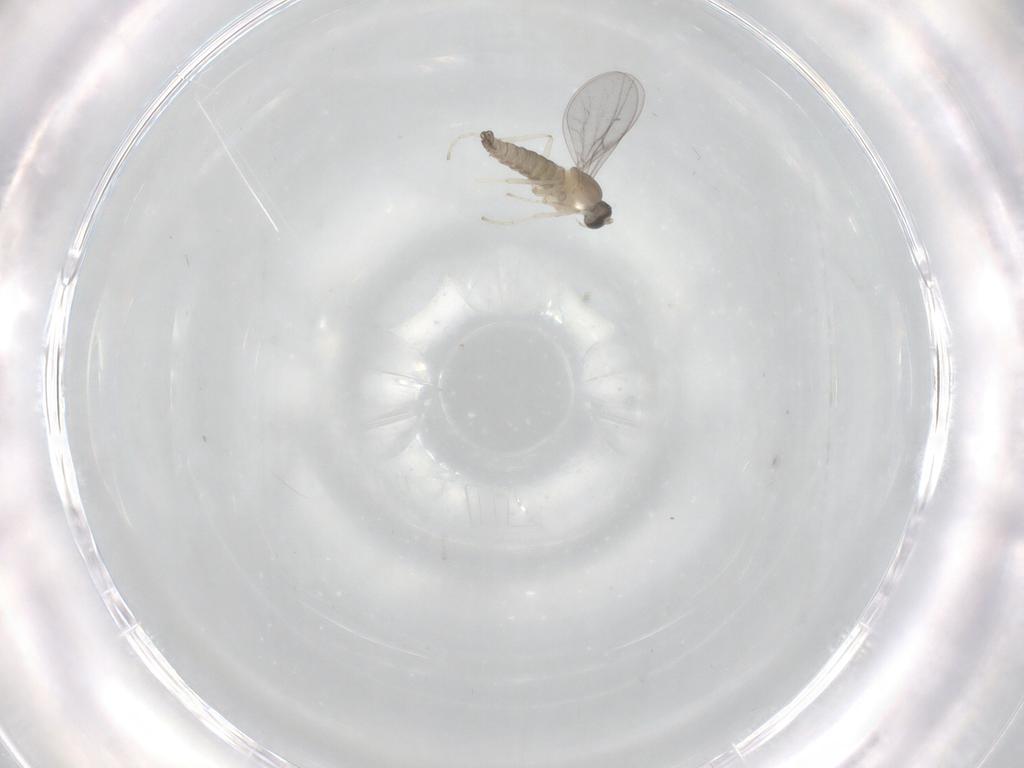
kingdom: Animalia
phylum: Arthropoda
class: Insecta
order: Diptera
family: Cecidomyiidae
